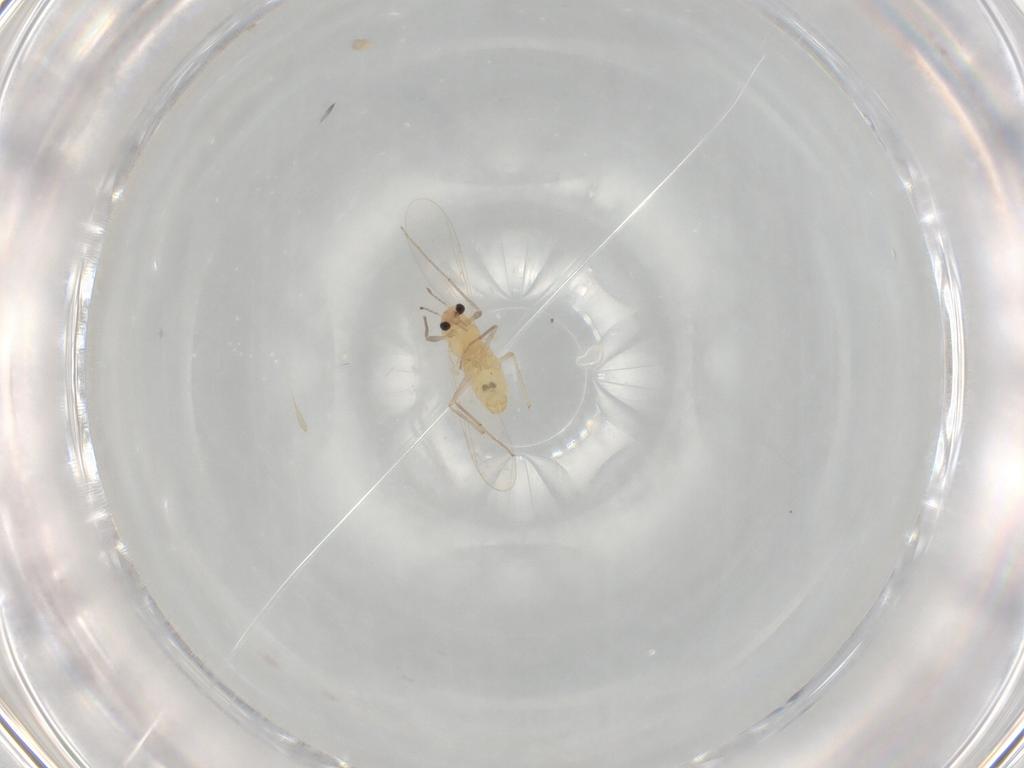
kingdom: Animalia
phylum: Arthropoda
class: Insecta
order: Diptera
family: Chironomidae
